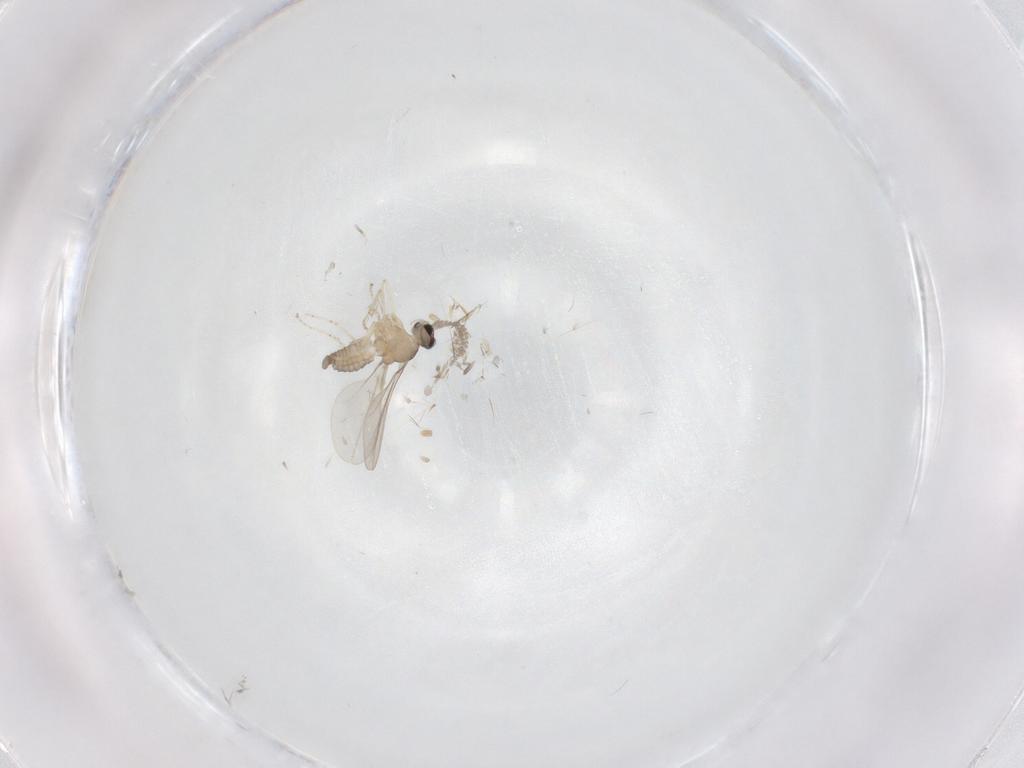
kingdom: Animalia
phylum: Arthropoda
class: Insecta
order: Diptera
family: Cecidomyiidae
